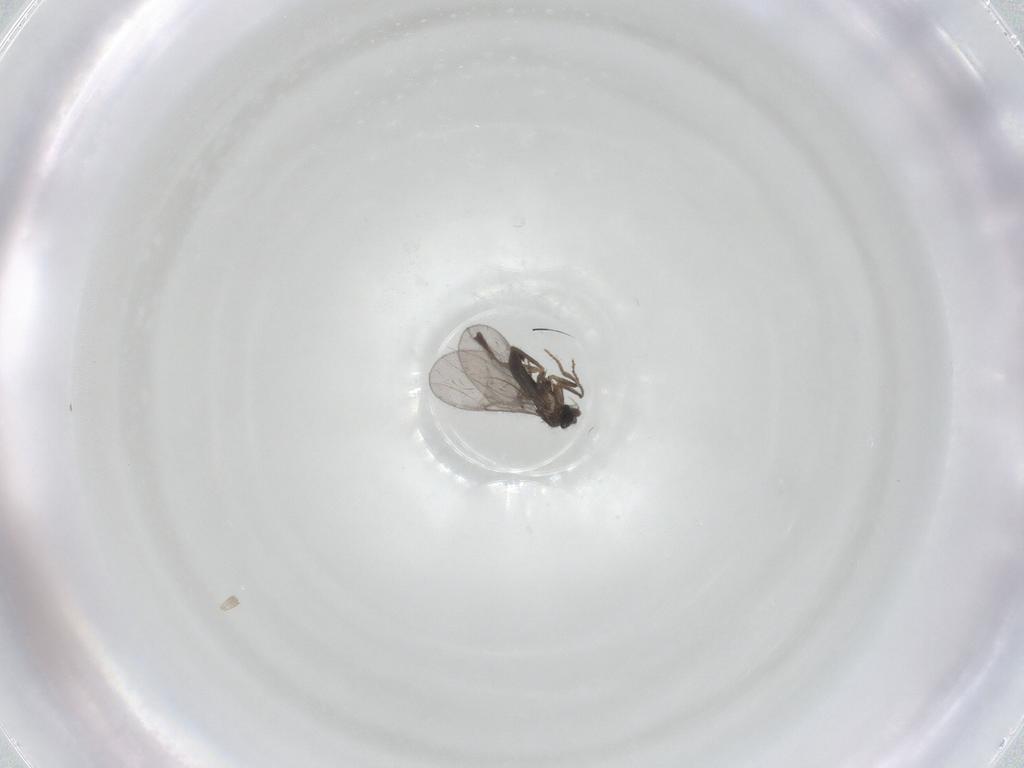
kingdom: Animalia
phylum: Arthropoda
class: Insecta
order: Diptera
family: Phoridae
